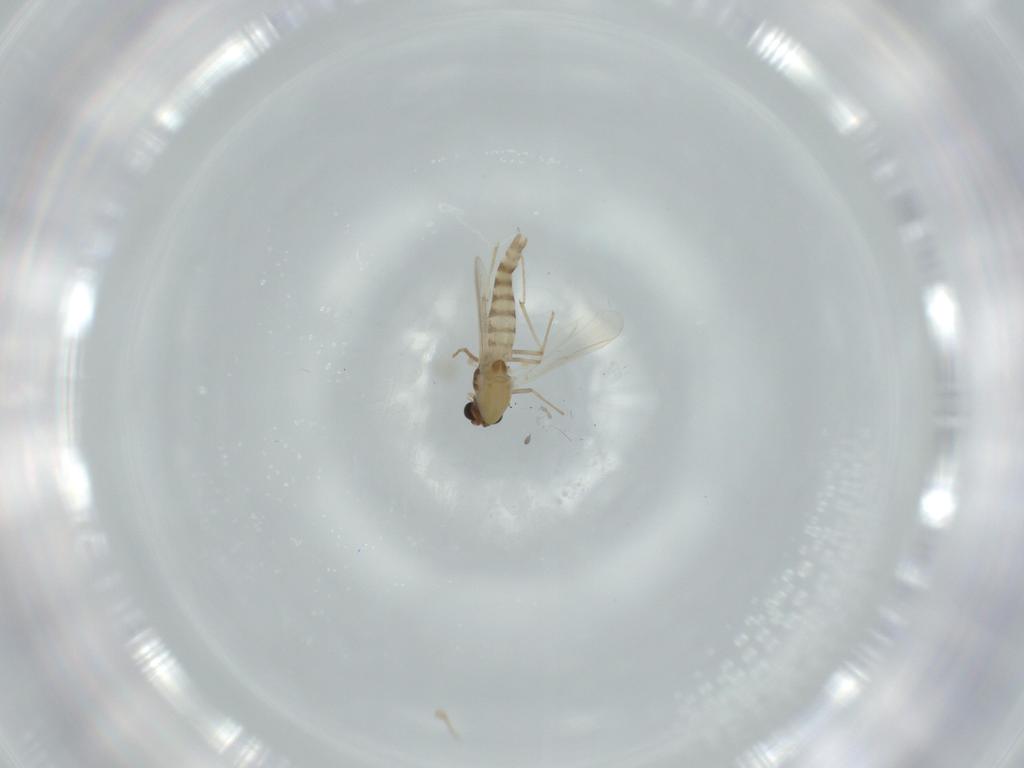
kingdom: Animalia
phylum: Arthropoda
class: Insecta
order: Diptera
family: Chironomidae
